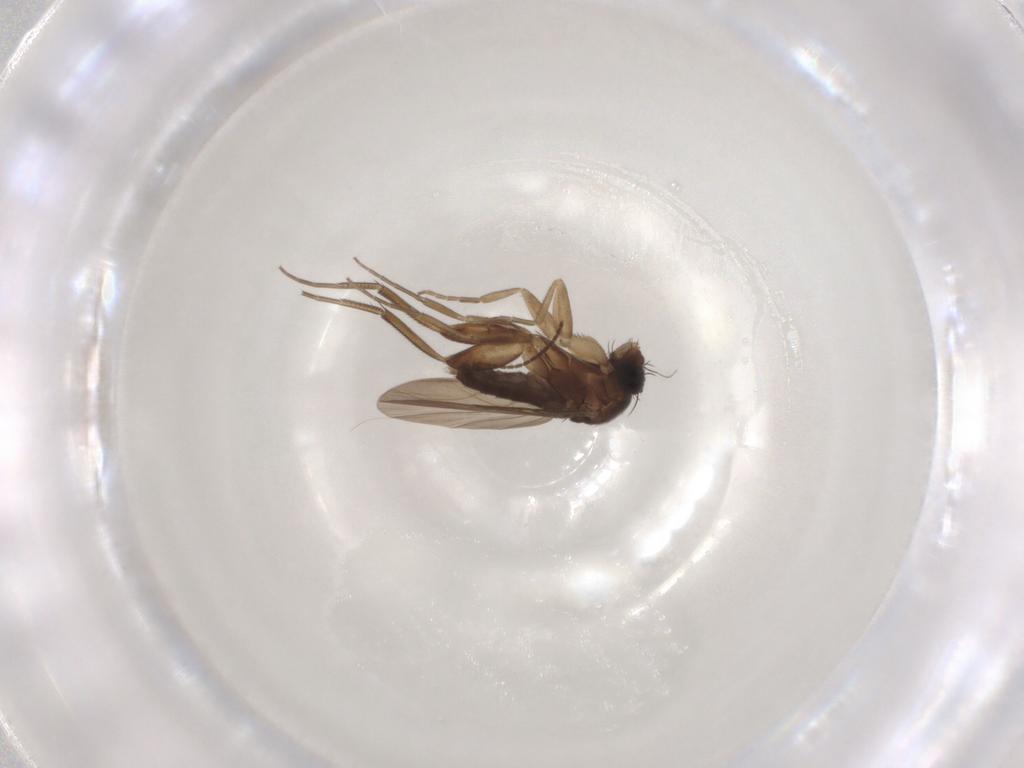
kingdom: Animalia
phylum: Arthropoda
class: Insecta
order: Diptera
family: Phoridae
